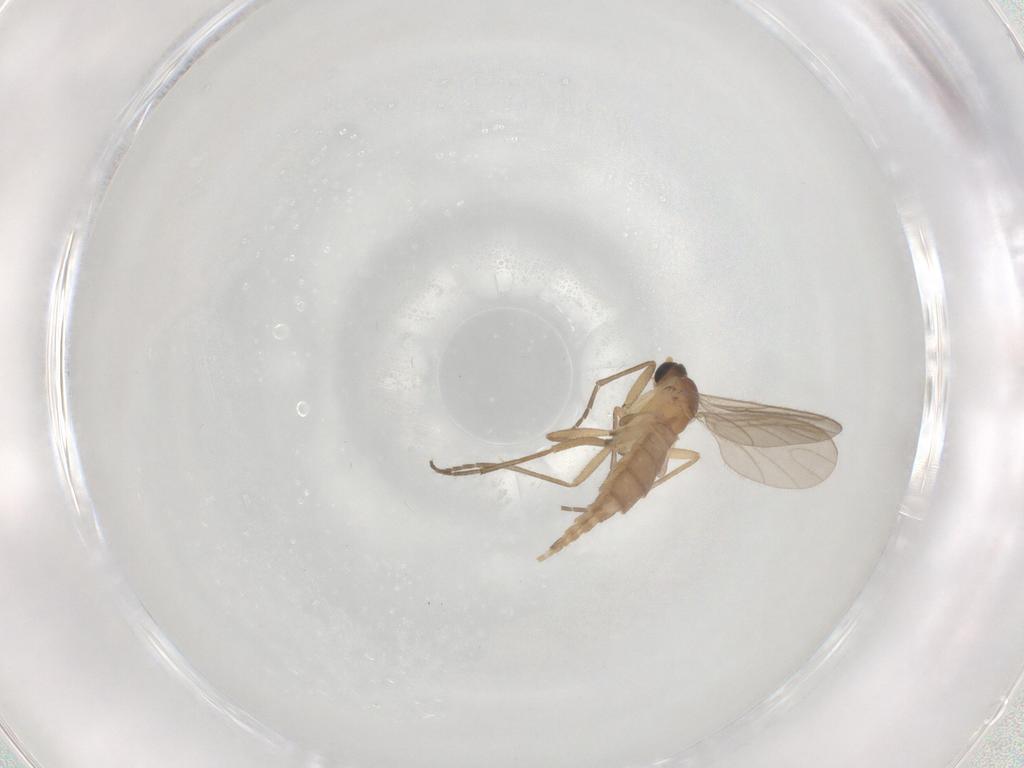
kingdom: Animalia
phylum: Arthropoda
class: Insecta
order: Diptera
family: Sciaridae
